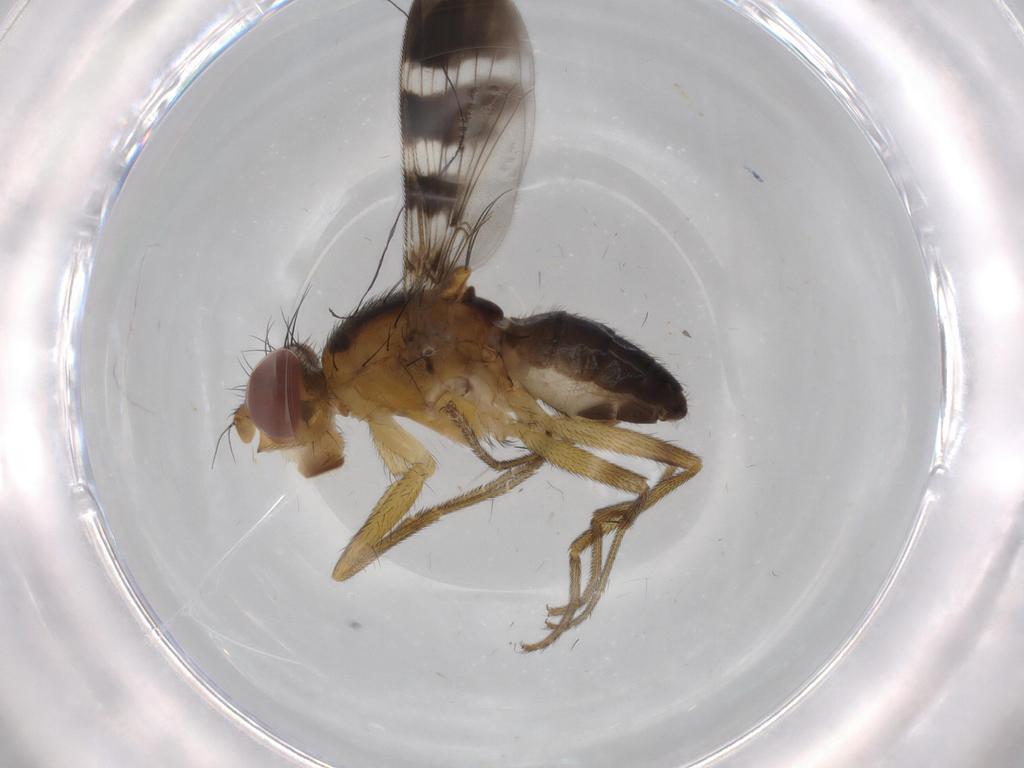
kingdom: Animalia
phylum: Arthropoda
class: Insecta
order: Diptera
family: Tephritidae
